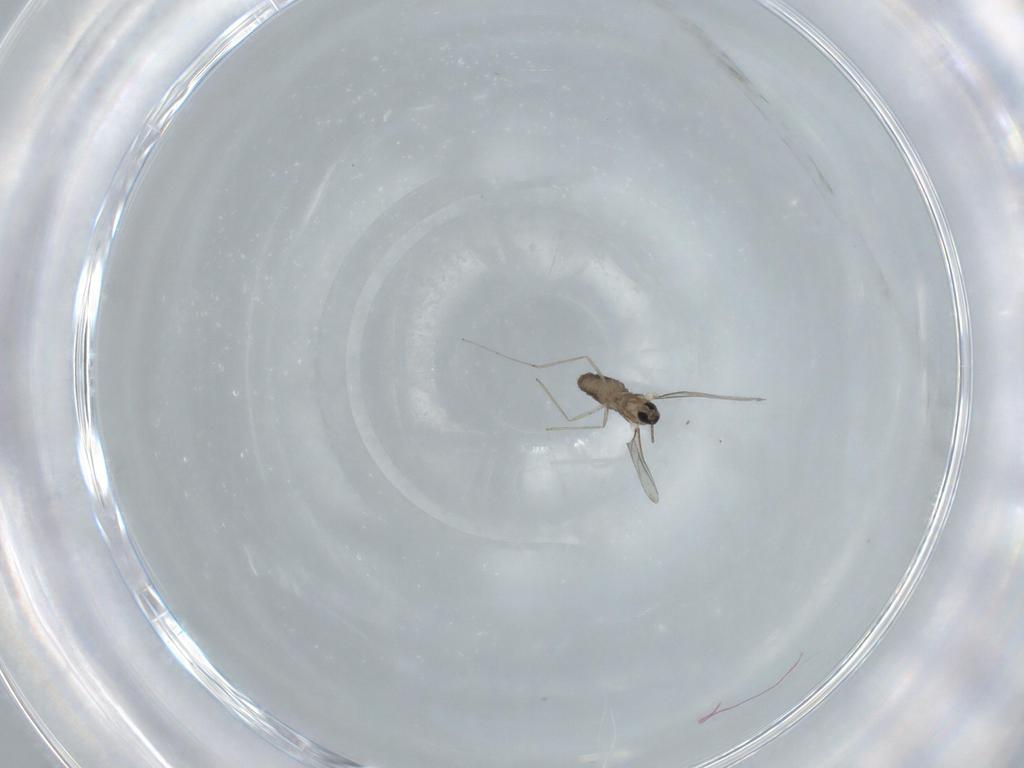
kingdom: Animalia
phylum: Arthropoda
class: Insecta
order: Diptera
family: Cecidomyiidae
